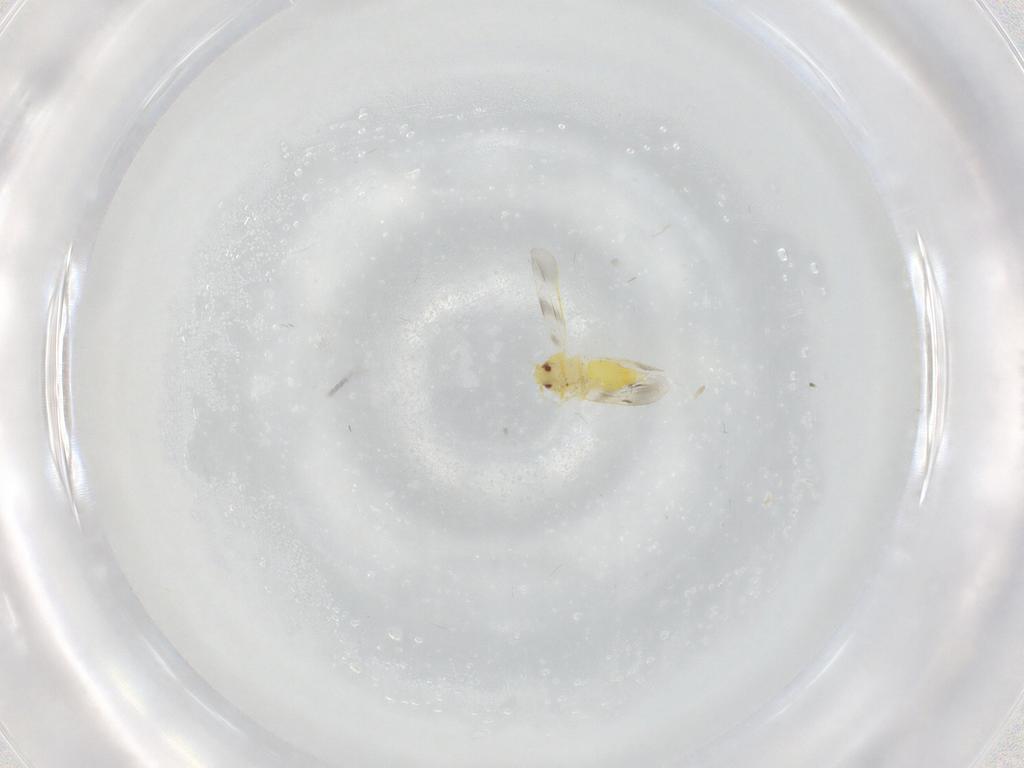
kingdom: Animalia
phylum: Arthropoda
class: Insecta
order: Hemiptera
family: Aleyrodidae
